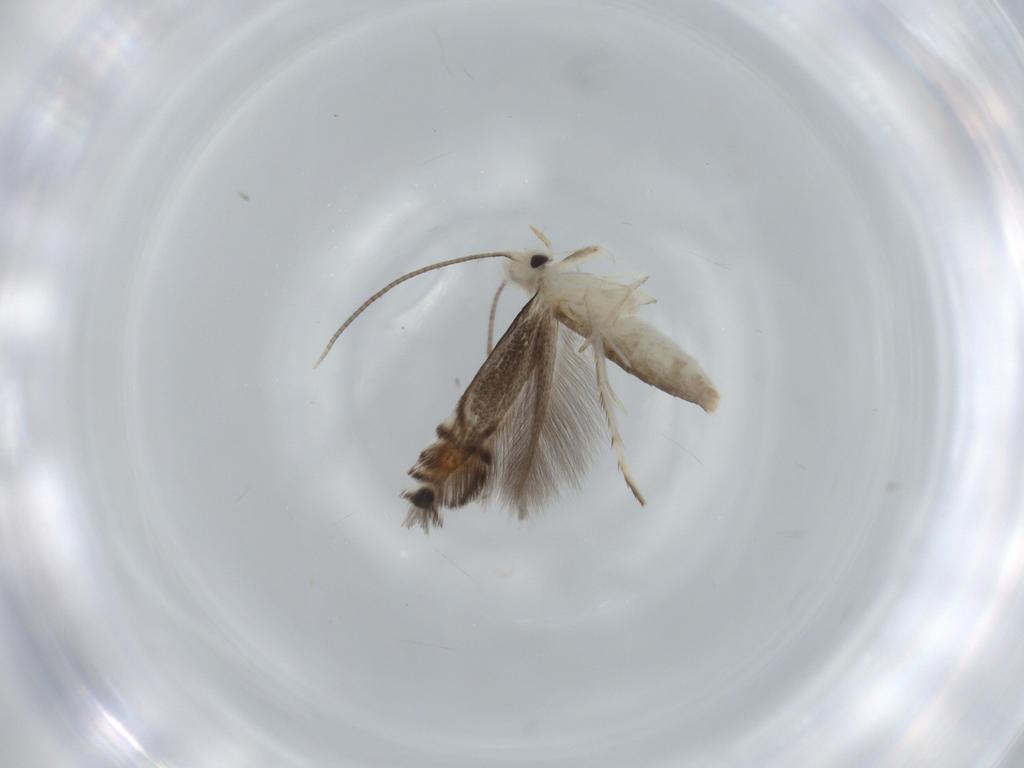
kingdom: Animalia
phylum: Arthropoda
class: Insecta
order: Lepidoptera
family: Gracillariidae
